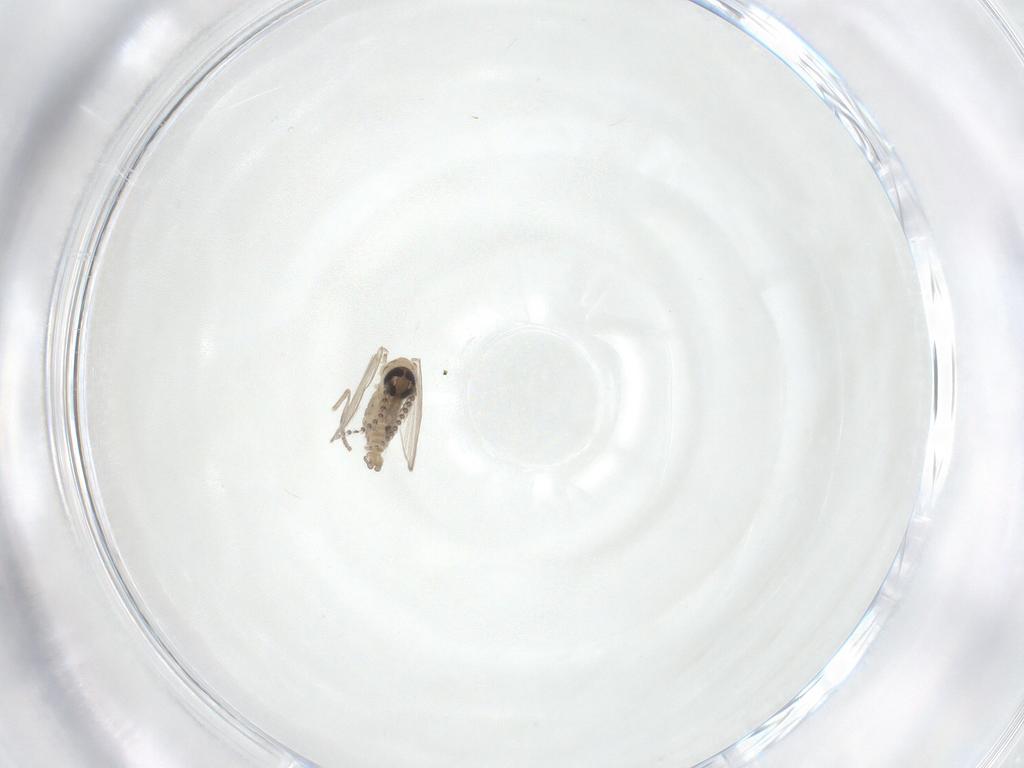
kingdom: Animalia
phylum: Arthropoda
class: Insecta
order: Diptera
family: Psychodidae
